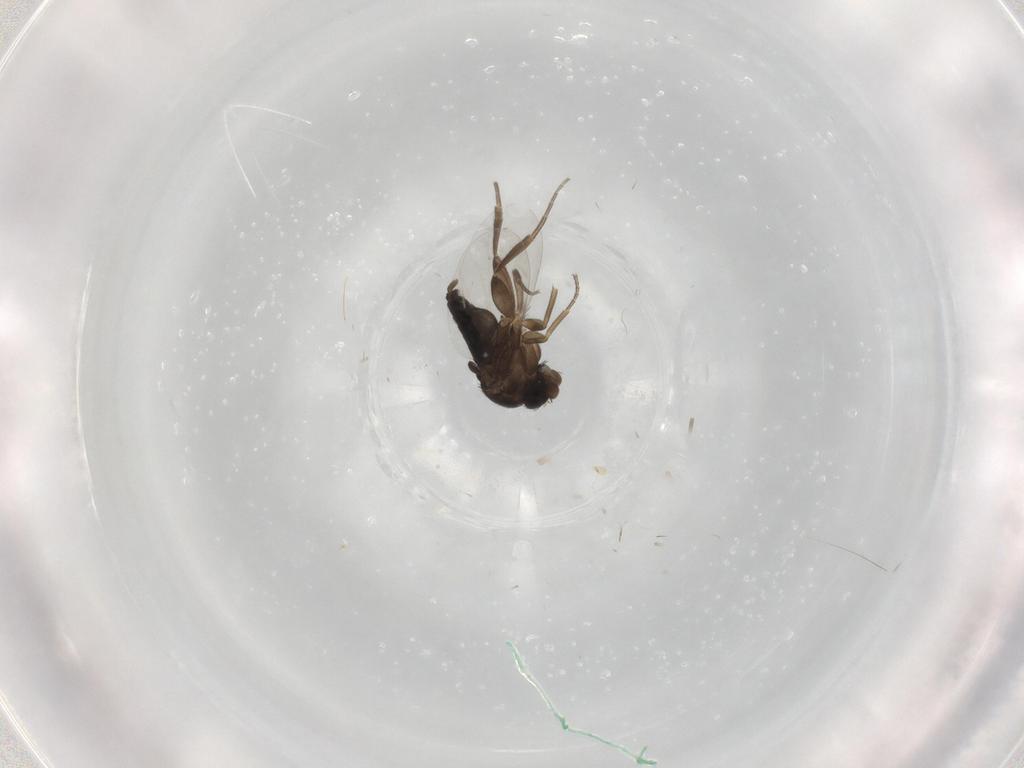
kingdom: Animalia
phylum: Arthropoda
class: Insecta
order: Diptera
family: Phoridae
